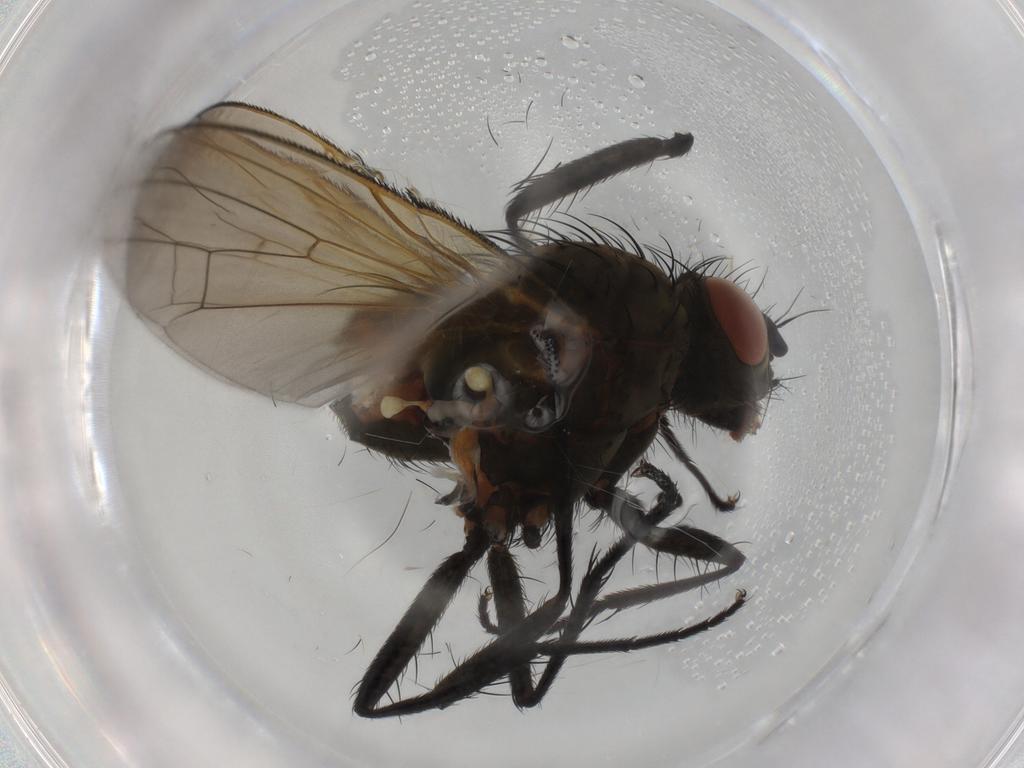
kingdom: Animalia
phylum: Arthropoda
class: Insecta
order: Diptera
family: Anthomyiidae
